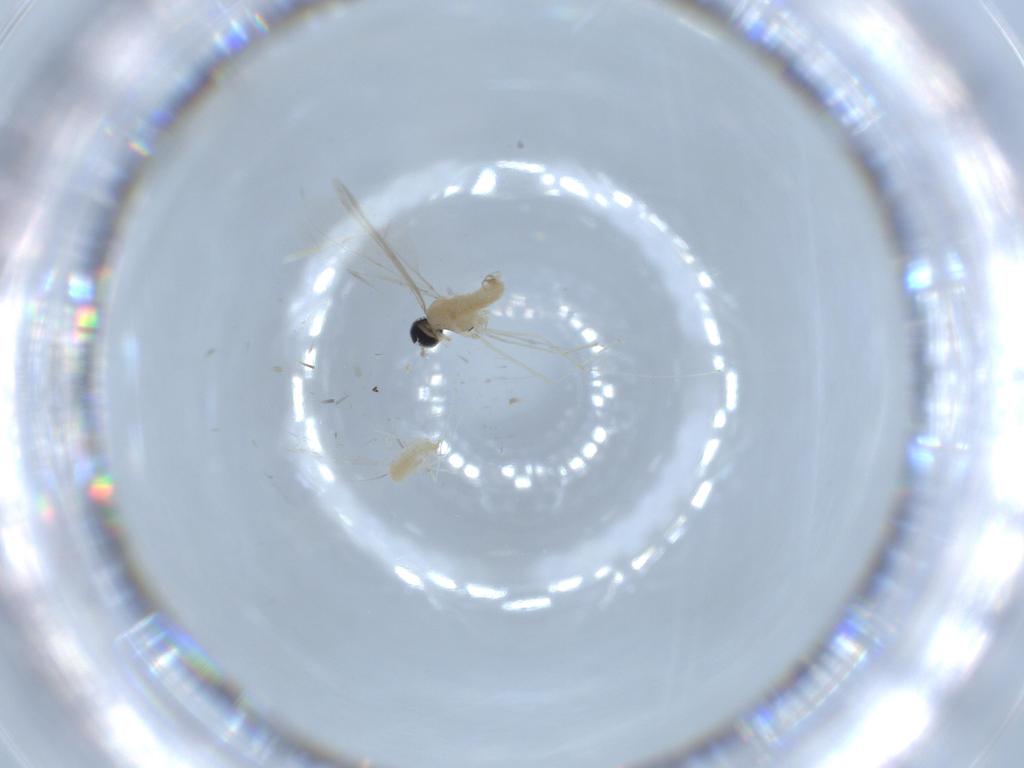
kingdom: Animalia
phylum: Arthropoda
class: Insecta
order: Diptera
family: Cecidomyiidae
